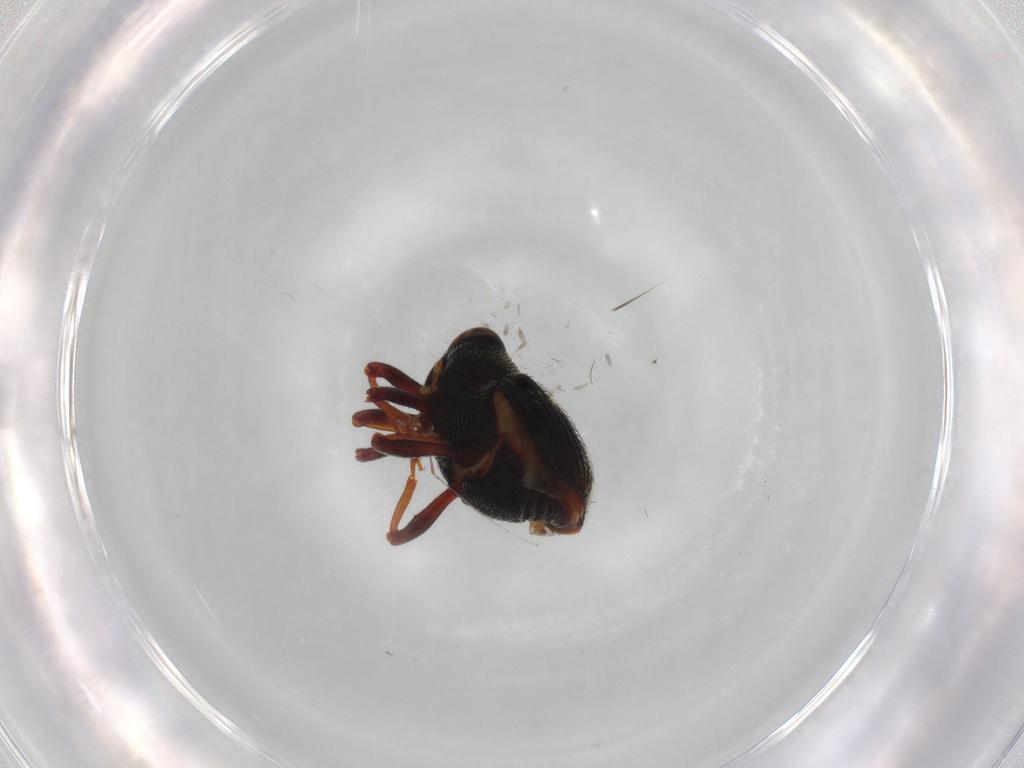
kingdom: Animalia
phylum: Arthropoda
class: Insecta
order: Coleoptera
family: Curculionidae
